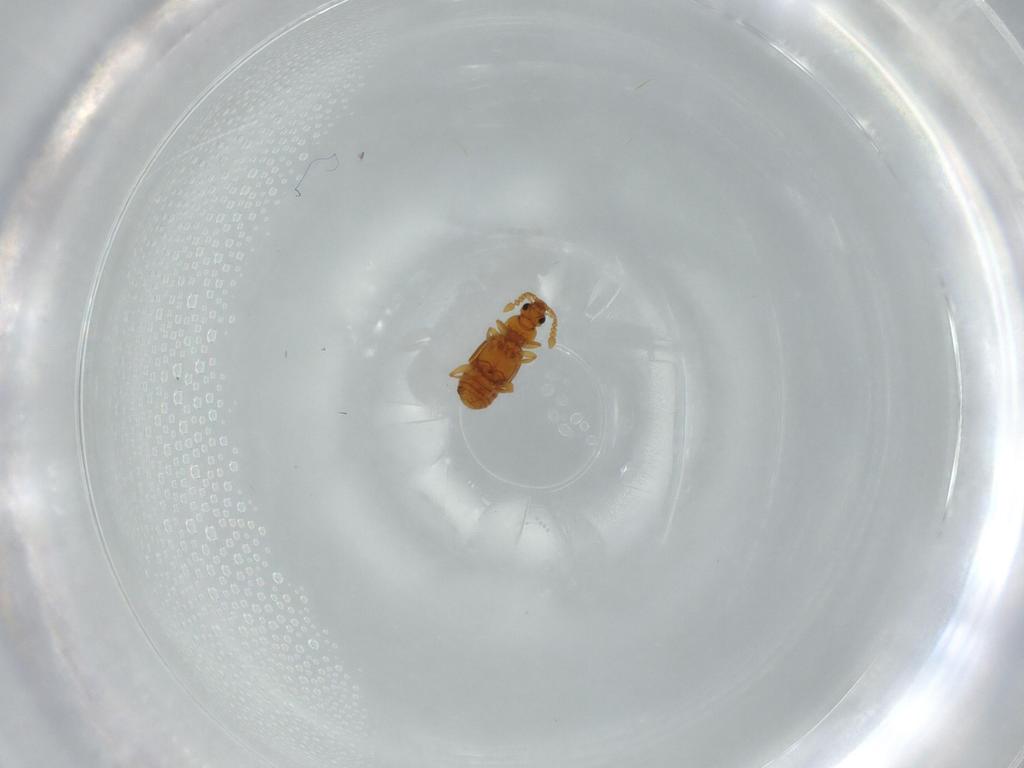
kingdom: Animalia
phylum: Arthropoda
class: Insecta
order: Coleoptera
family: Staphylinidae
